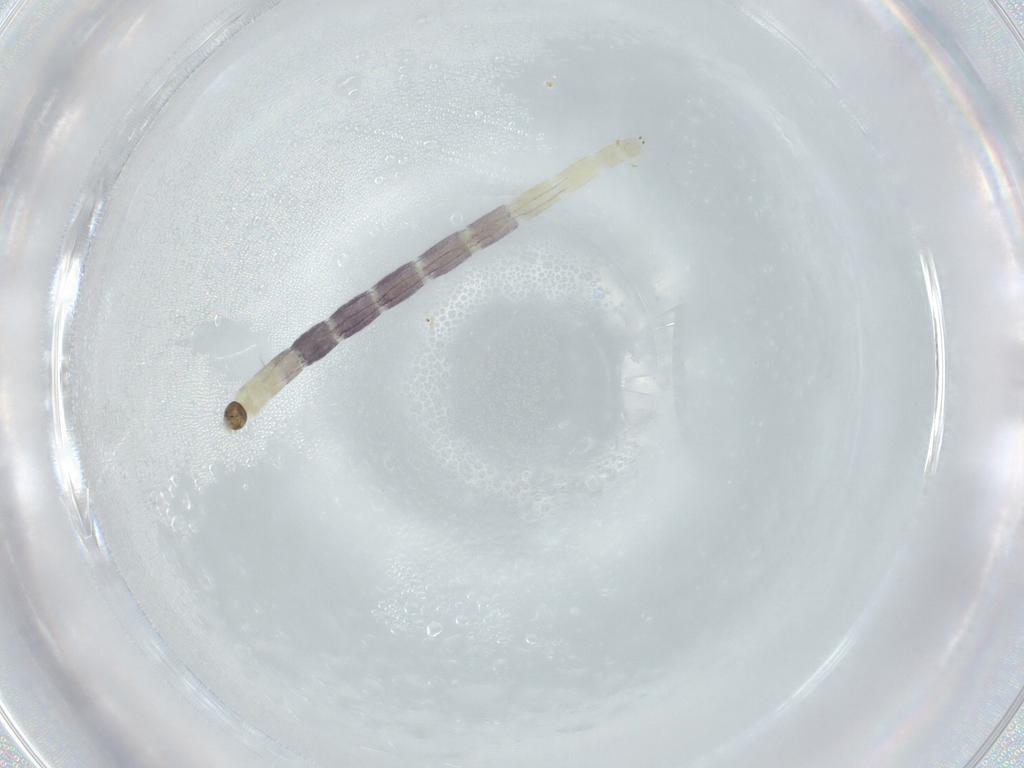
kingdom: Animalia
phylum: Arthropoda
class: Insecta
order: Diptera
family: Chironomidae
